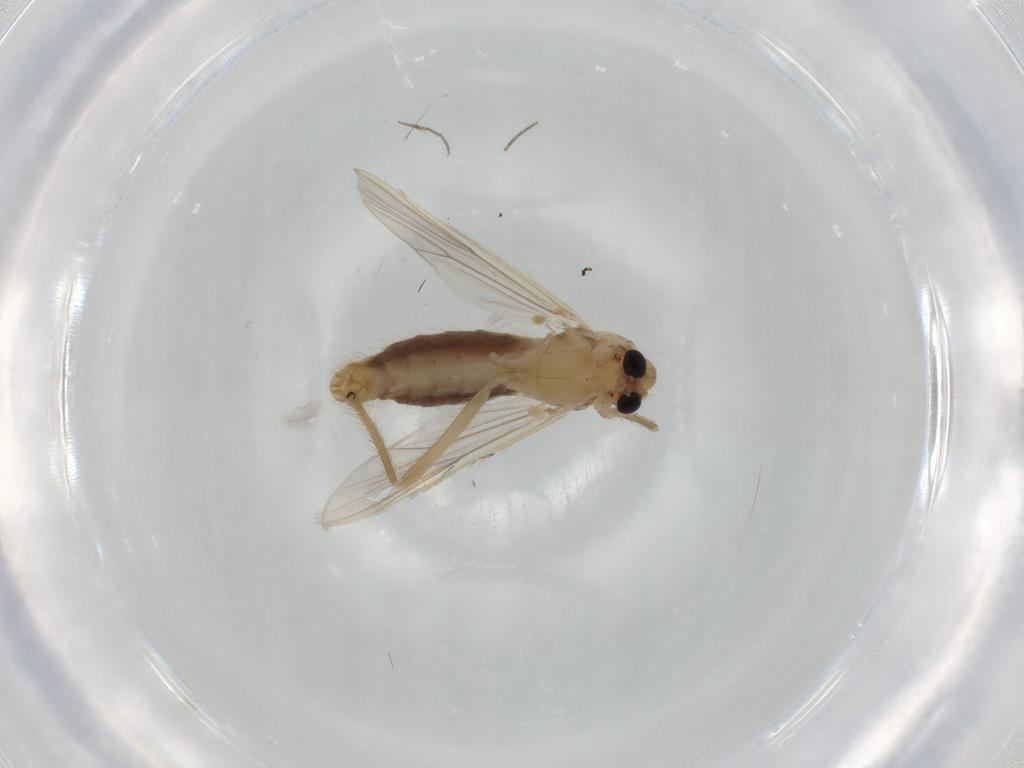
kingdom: Animalia
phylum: Arthropoda
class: Insecta
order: Diptera
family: Chironomidae
